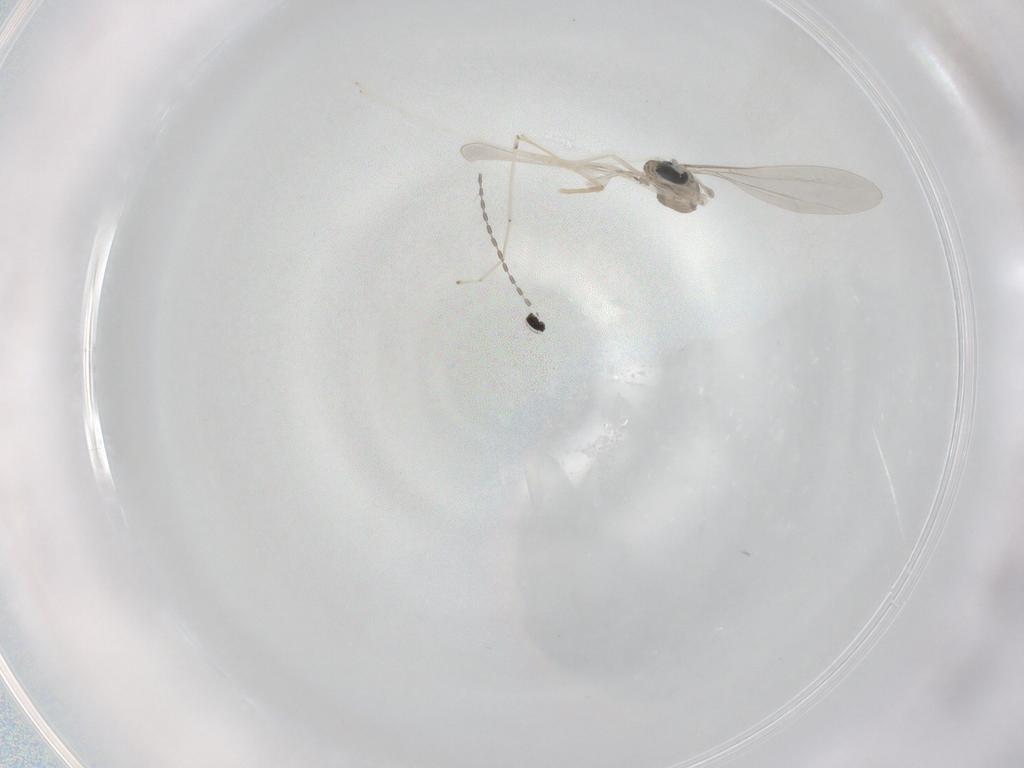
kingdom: Animalia
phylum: Arthropoda
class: Insecta
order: Diptera
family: Cecidomyiidae
